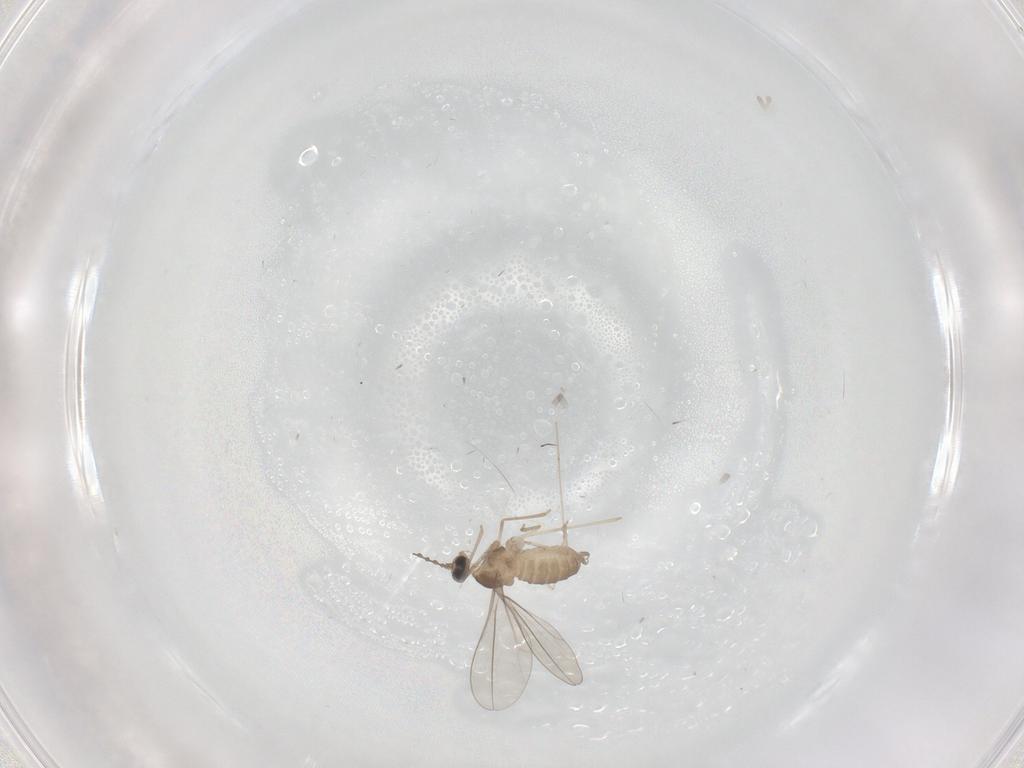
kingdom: Animalia
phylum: Arthropoda
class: Insecta
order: Diptera
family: Cecidomyiidae
